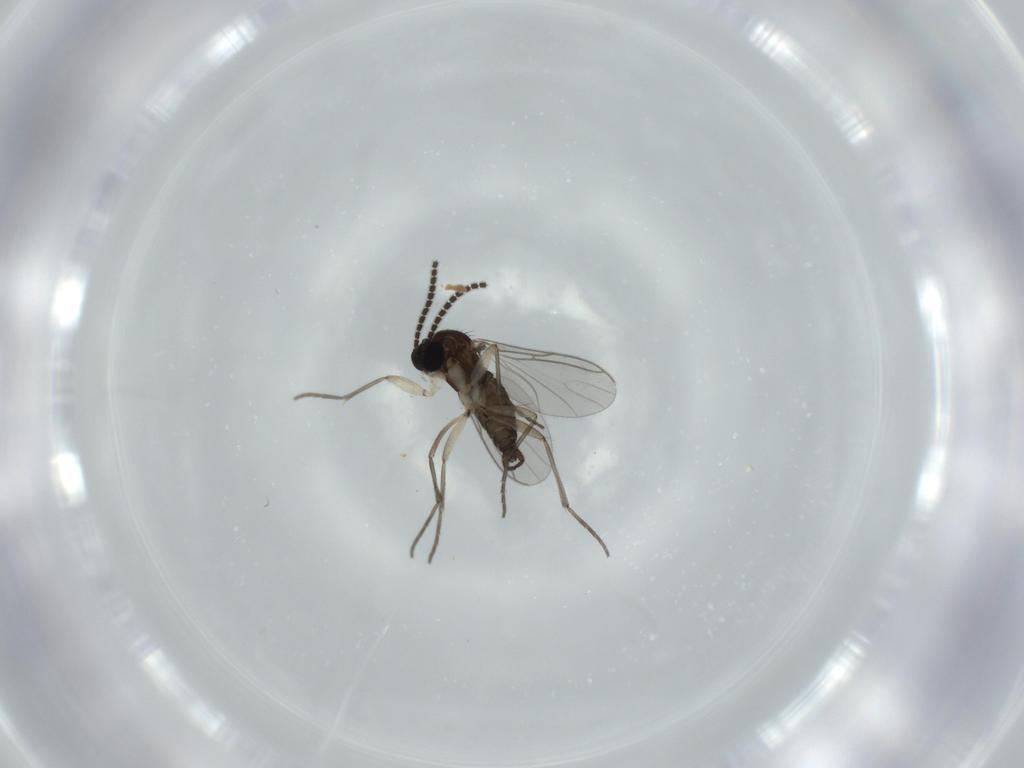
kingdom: Animalia
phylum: Arthropoda
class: Insecta
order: Diptera
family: Sciaridae
